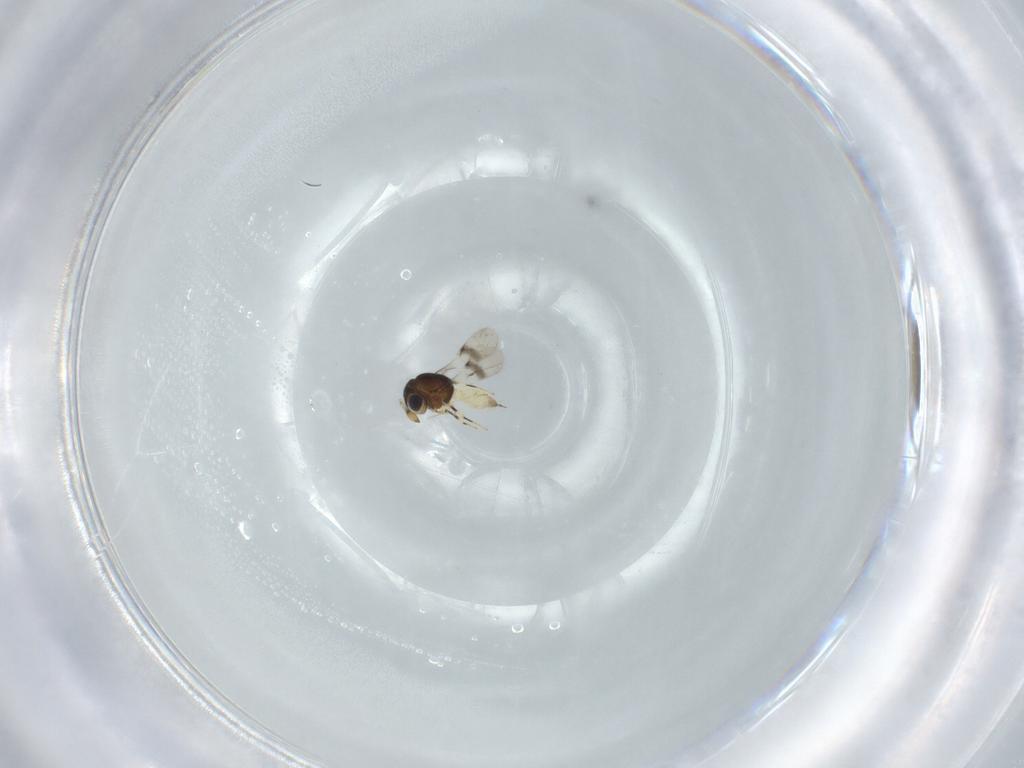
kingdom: Animalia
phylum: Arthropoda
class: Insecta
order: Hymenoptera
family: Scelionidae
